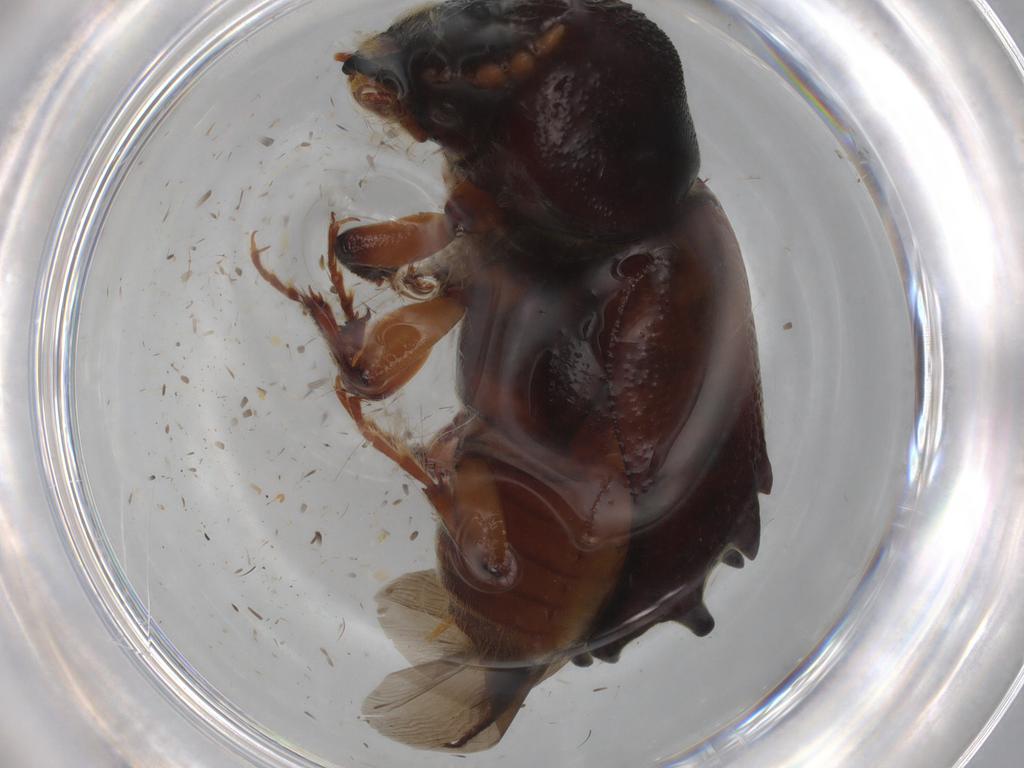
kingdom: Animalia
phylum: Arthropoda
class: Insecta
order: Coleoptera
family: Bostrichidae
